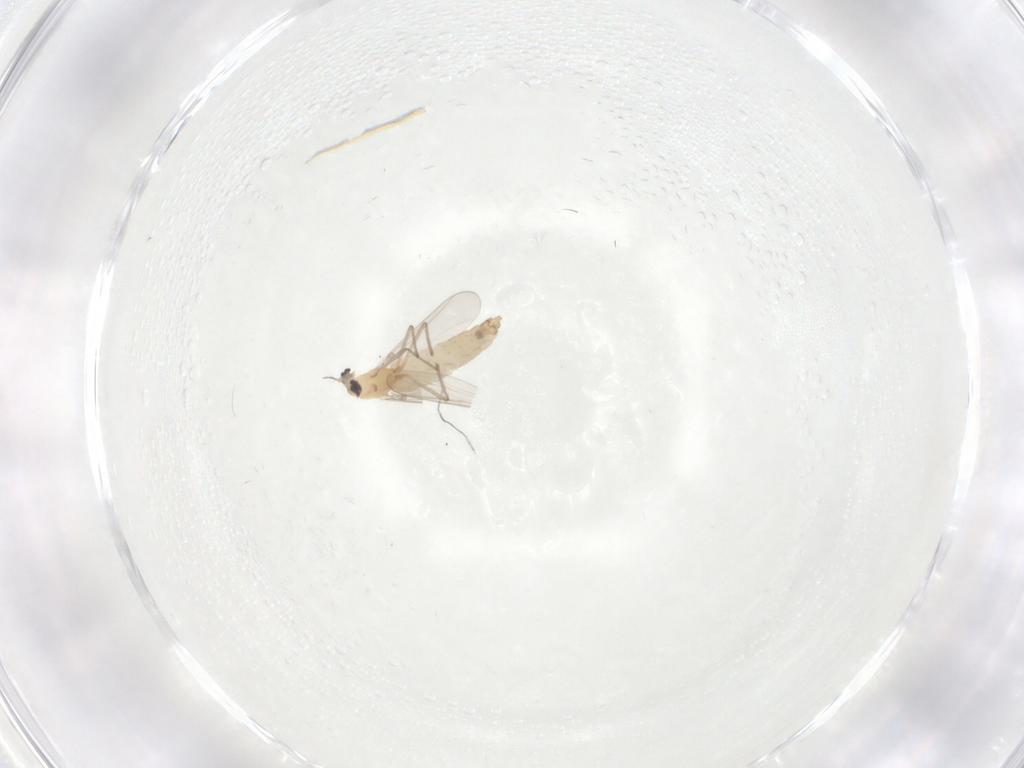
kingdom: Animalia
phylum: Arthropoda
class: Insecta
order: Diptera
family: Chironomidae
